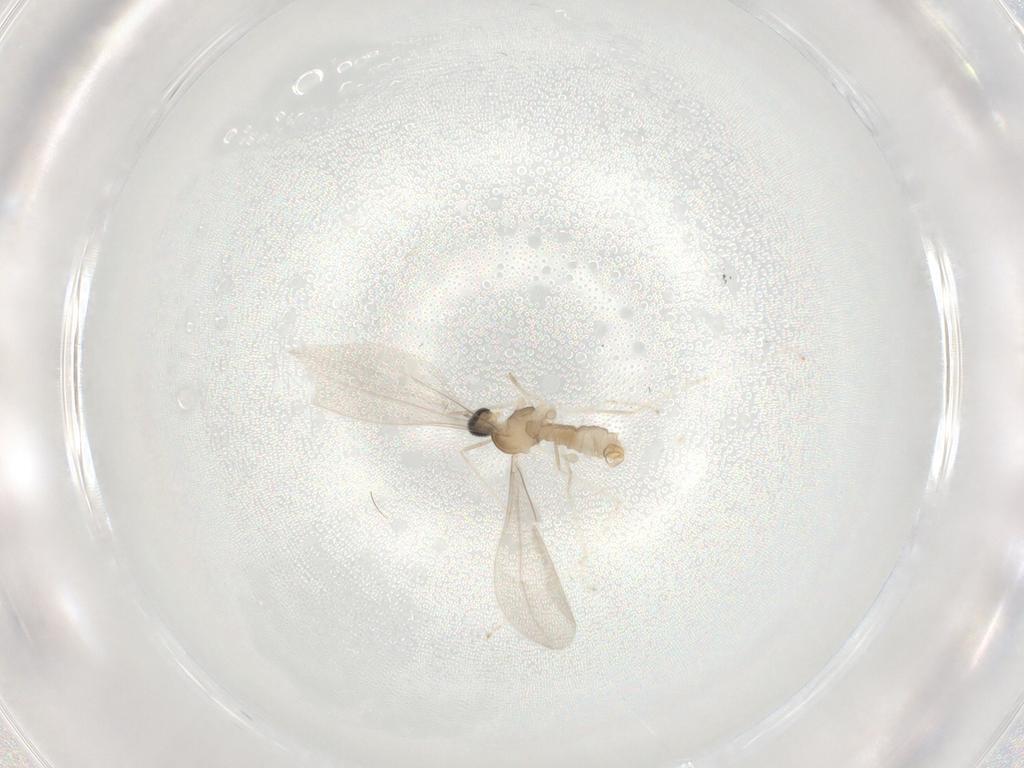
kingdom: Animalia
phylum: Arthropoda
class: Insecta
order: Diptera
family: Cecidomyiidae
